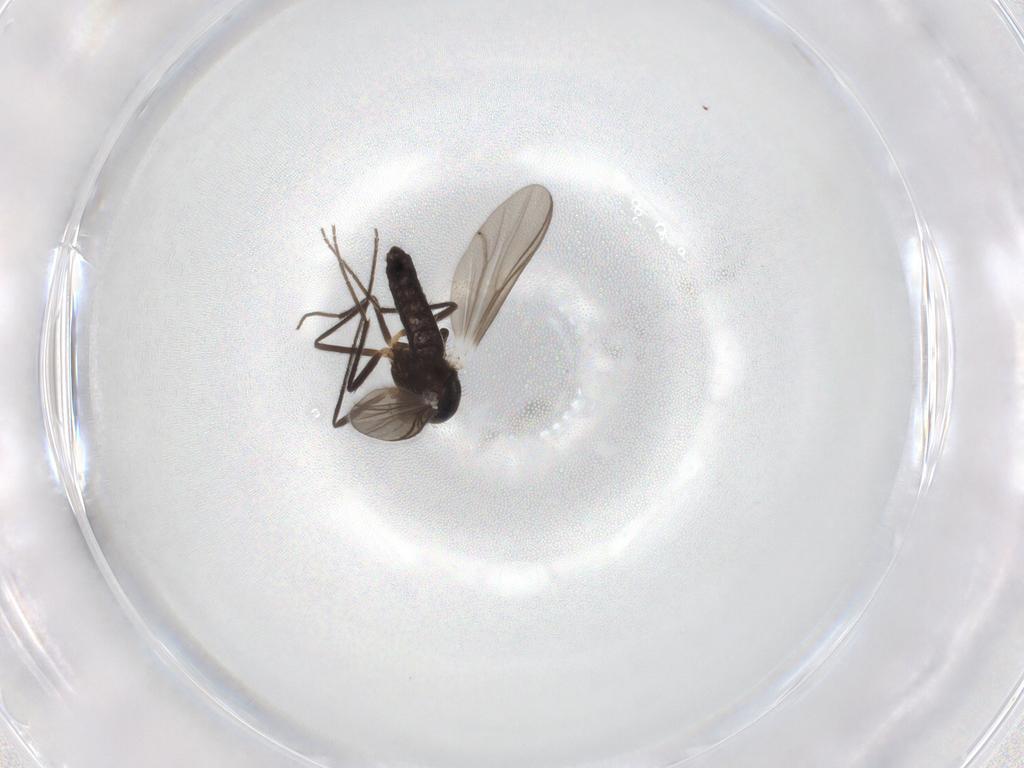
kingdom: Animalia
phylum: Arthropoda
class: Insecta
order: Diptera
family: Chironomidae
